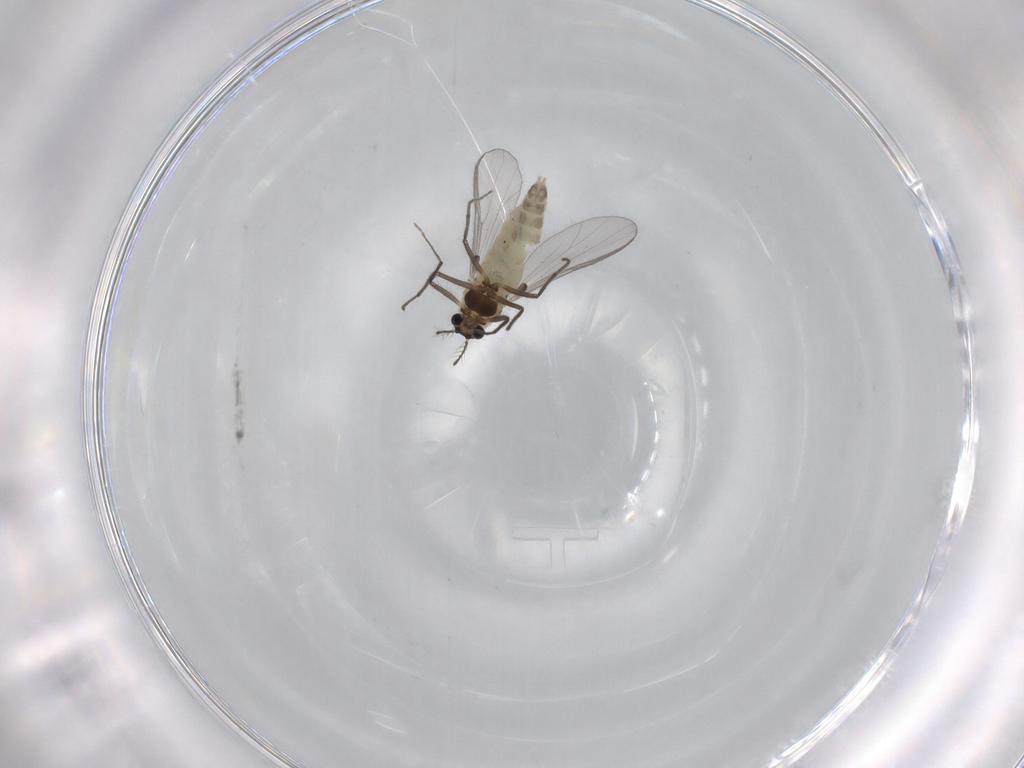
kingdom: Animalia
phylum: Arthropoda
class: Insecta
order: Diptera
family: Chironomidae
